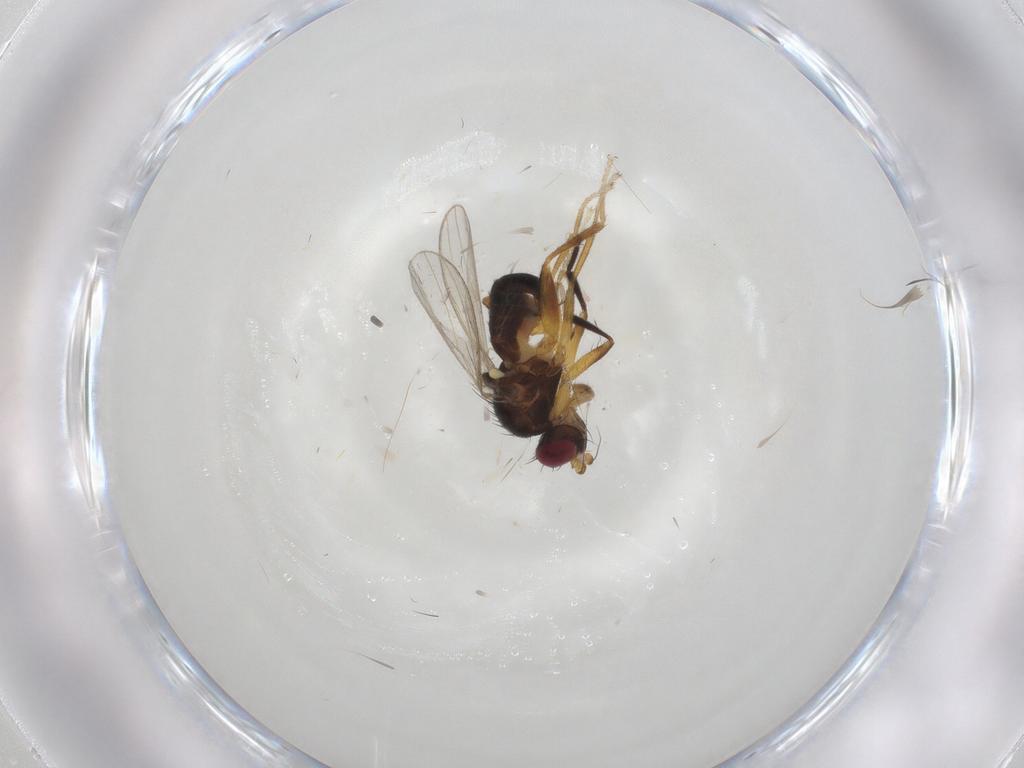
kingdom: Animalia
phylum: Arthropoda
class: Insecta
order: Diptera
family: Cypselosomatidae
